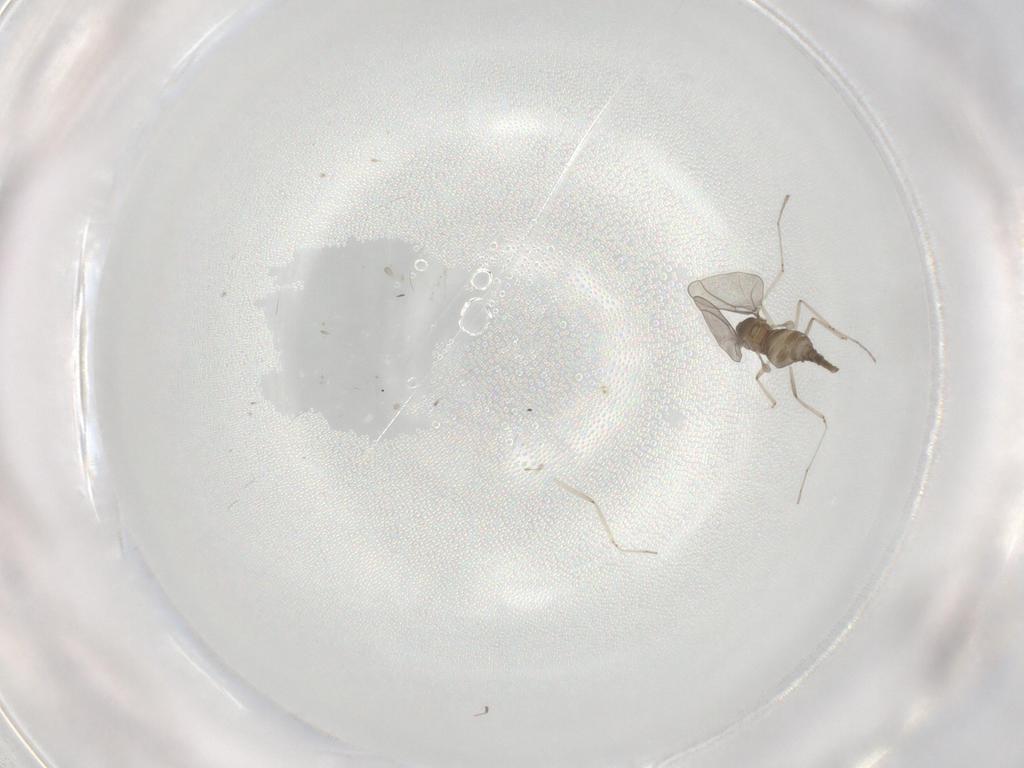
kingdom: Animalia
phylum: Arthropoda
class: Insecta
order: Diptera
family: Cecidomyiidae
